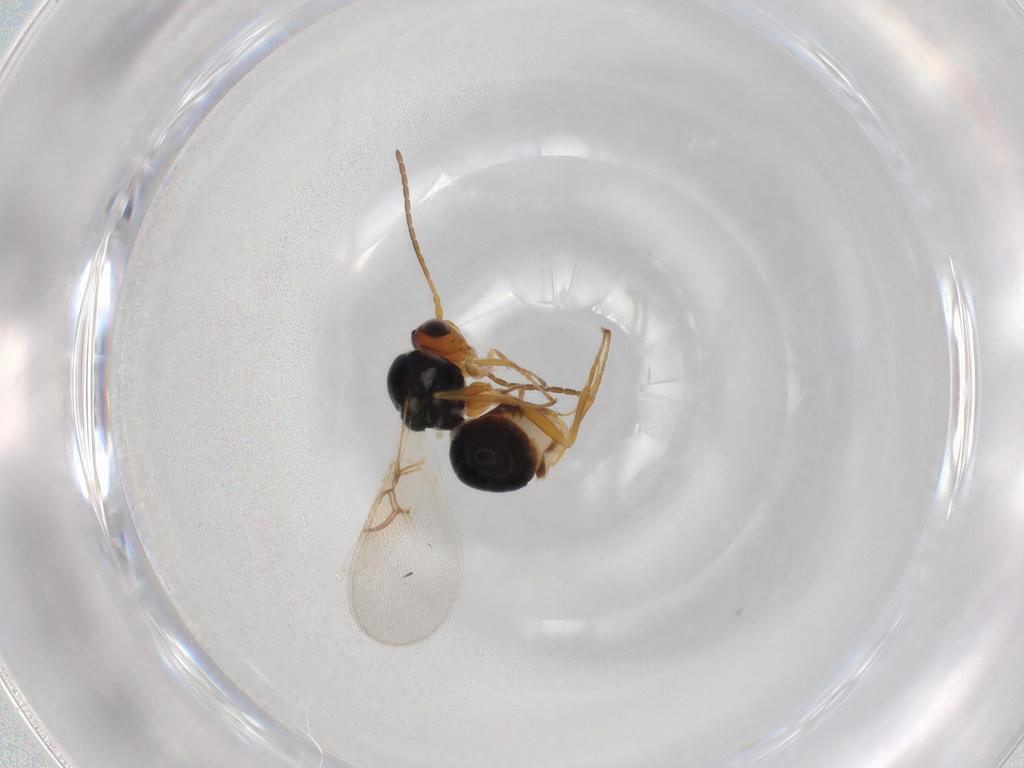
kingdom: Animalia
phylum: Arthropoda
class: Insecta
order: Hymenoptera
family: Figitidae
